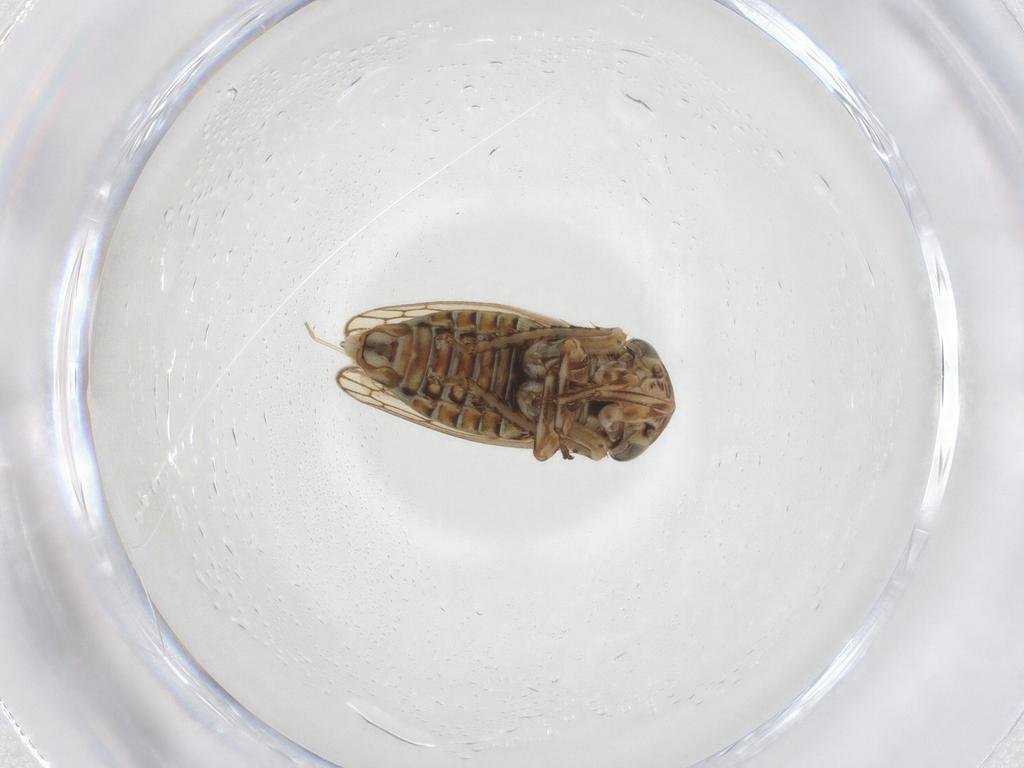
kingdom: Animalia
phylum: Arthropoda
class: Insecta
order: Hemiptera
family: Cicadellidae
